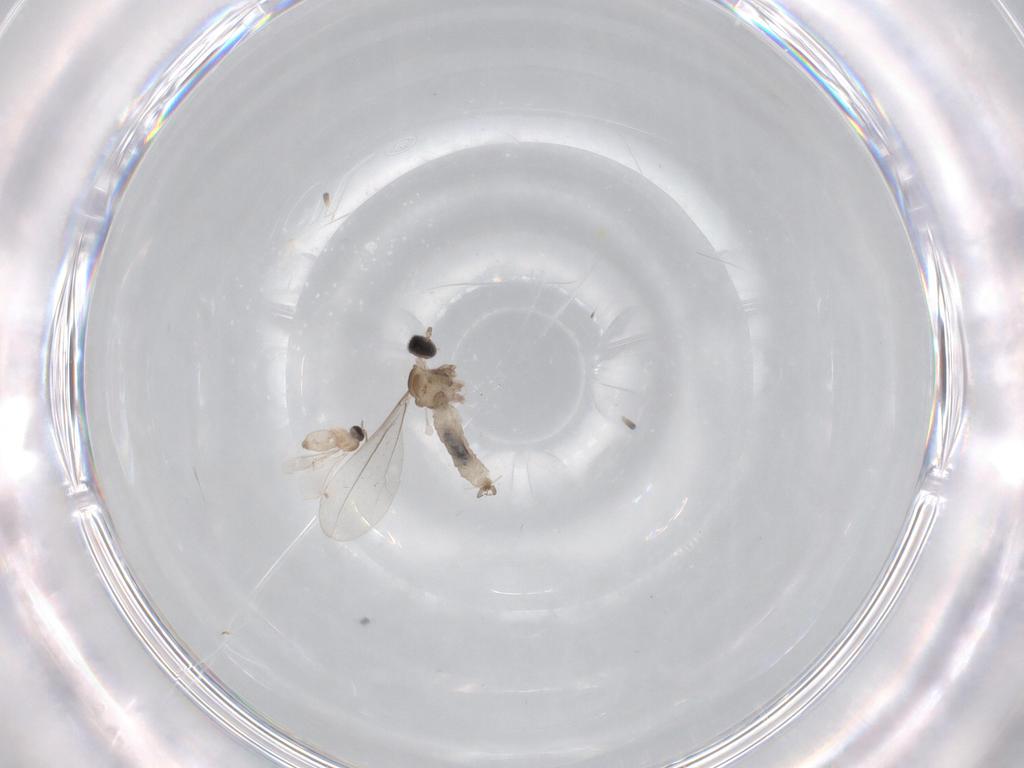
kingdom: Animalia
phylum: Arthropoda
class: Insecta
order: Diptera
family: Cecidomyiidae
